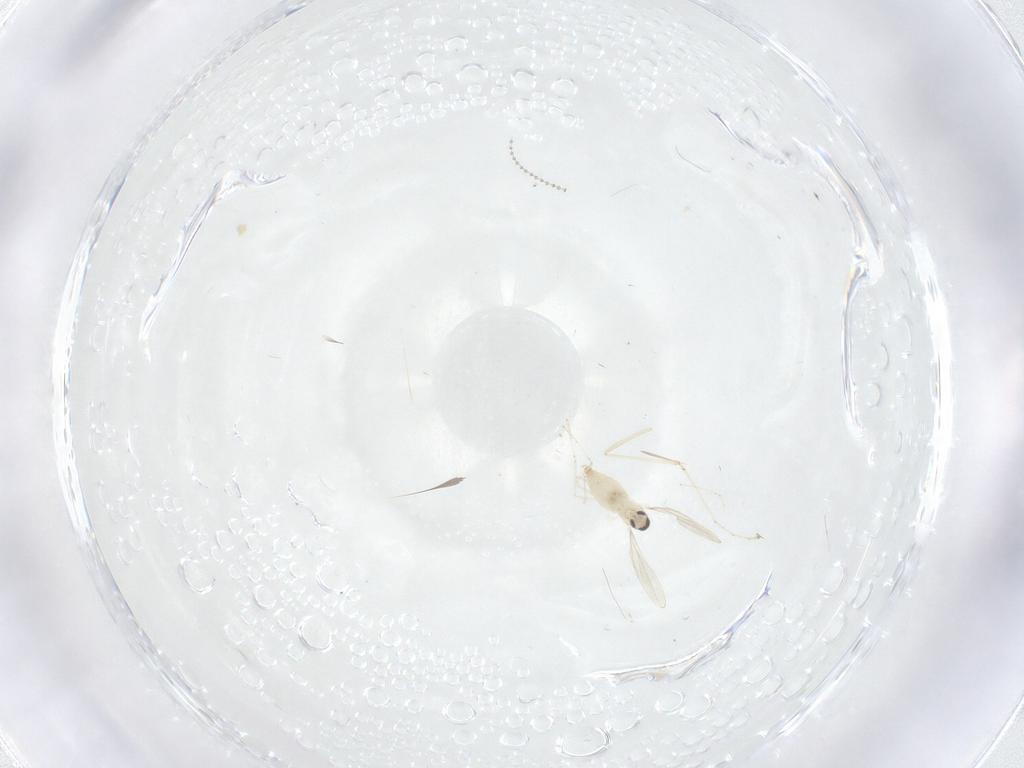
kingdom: Animalia
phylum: Arthropoda
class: Insecta
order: Diptera
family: Cecidomyiidae
